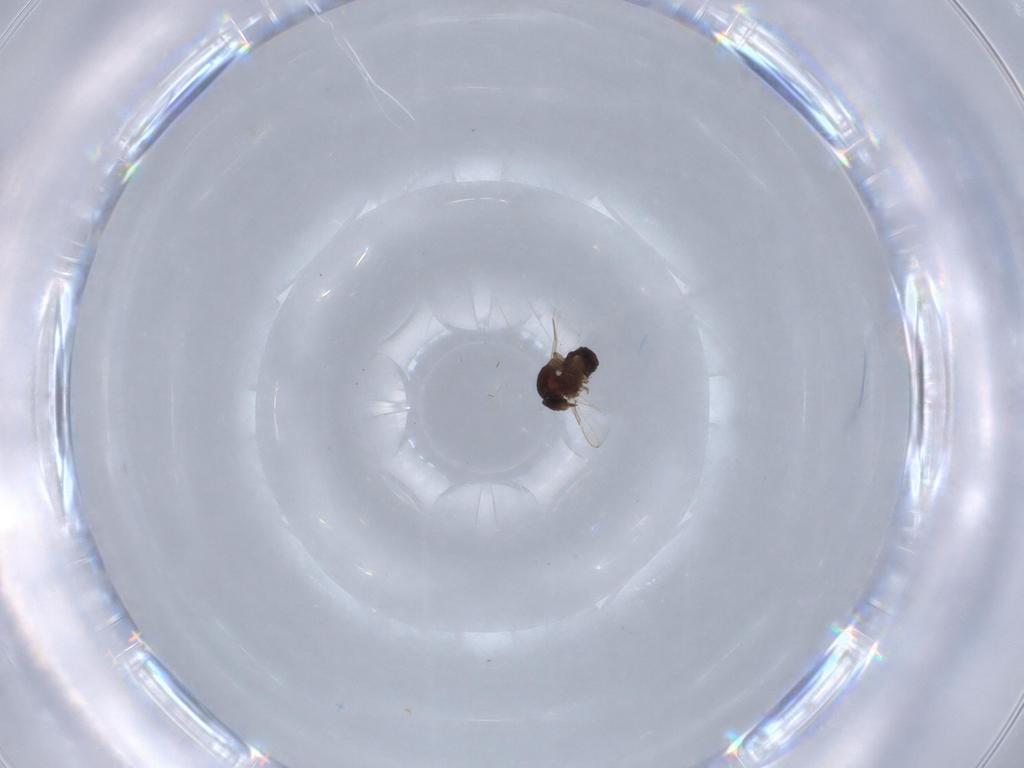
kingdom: Animalia
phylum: Arthropoda
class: Insecta
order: Diptera
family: Ceratopogonidae
